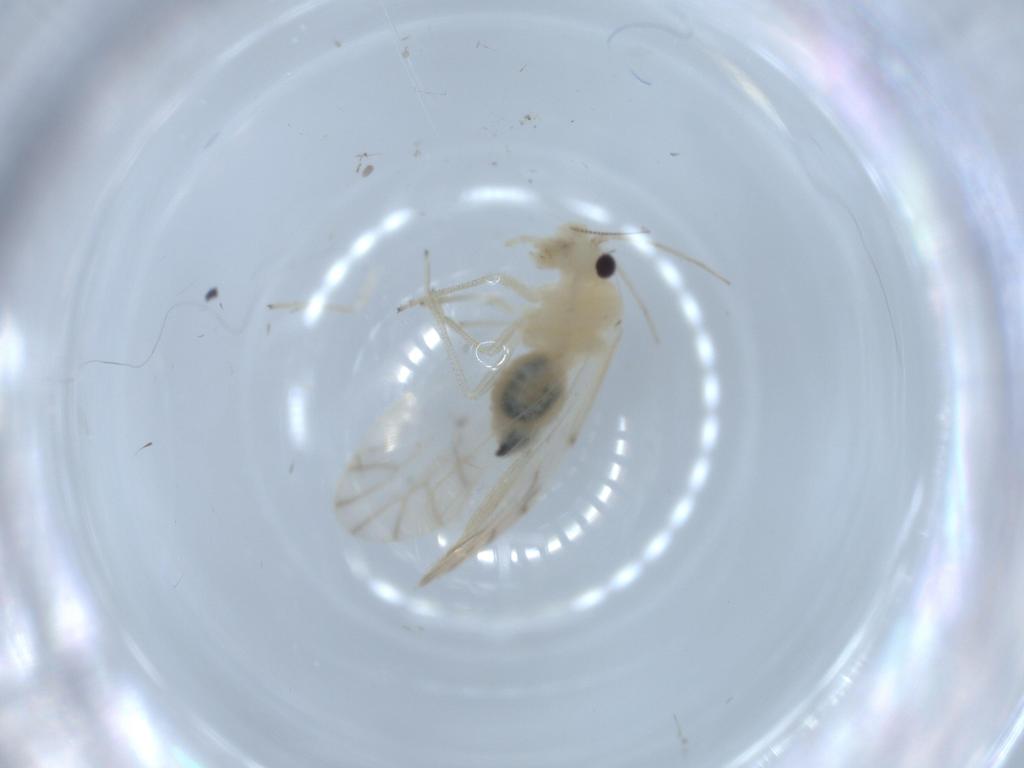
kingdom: Animalia
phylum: Arthropoda
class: Insecta
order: Psocodea
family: Caeciliusidae
